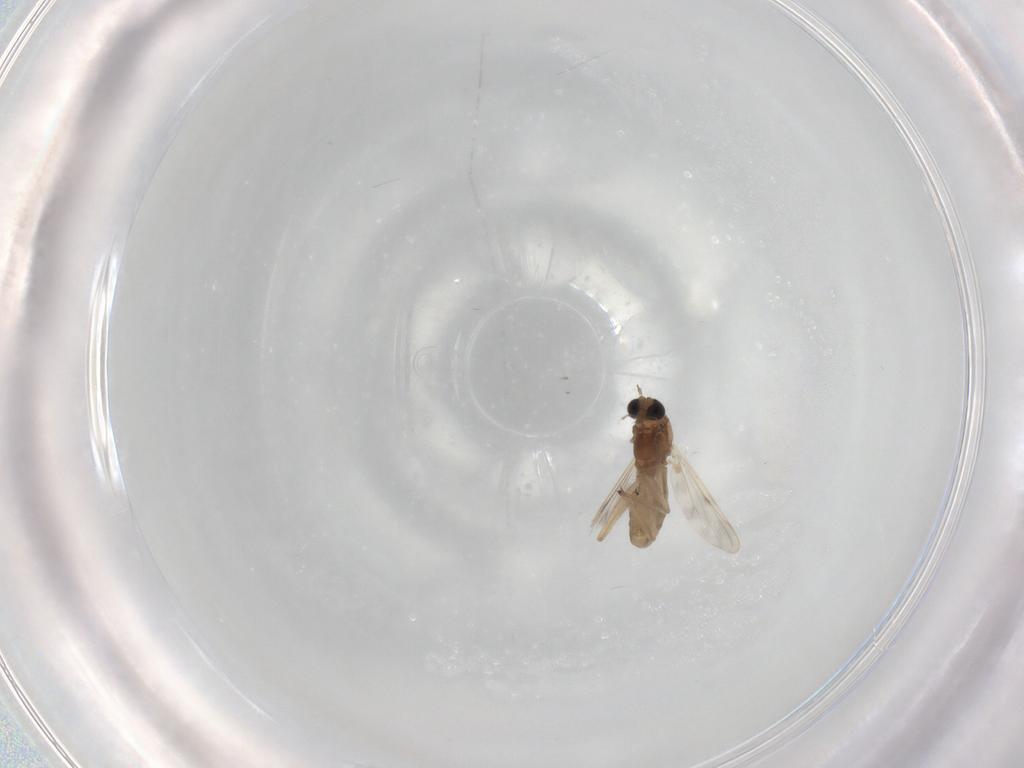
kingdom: Animalia
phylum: Arthropoda
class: Insecta
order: Diptera
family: Chironomidae
